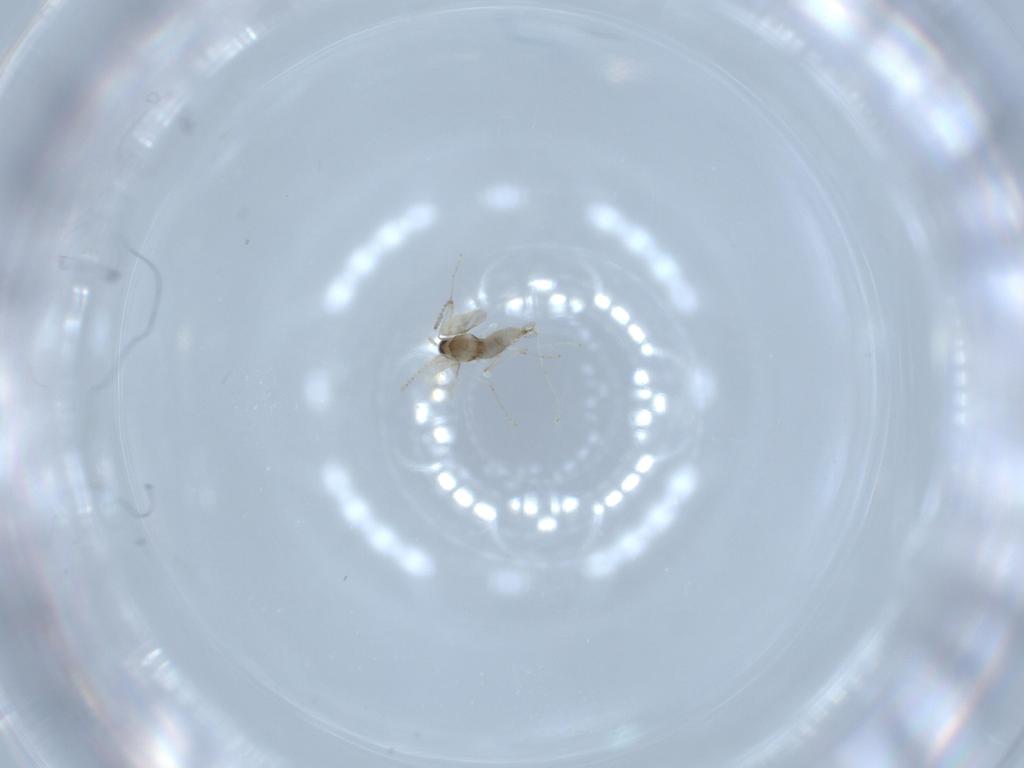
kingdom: Animalia
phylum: Arthropoda
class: Insecta
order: Diptera
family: Cecidomyiidae
